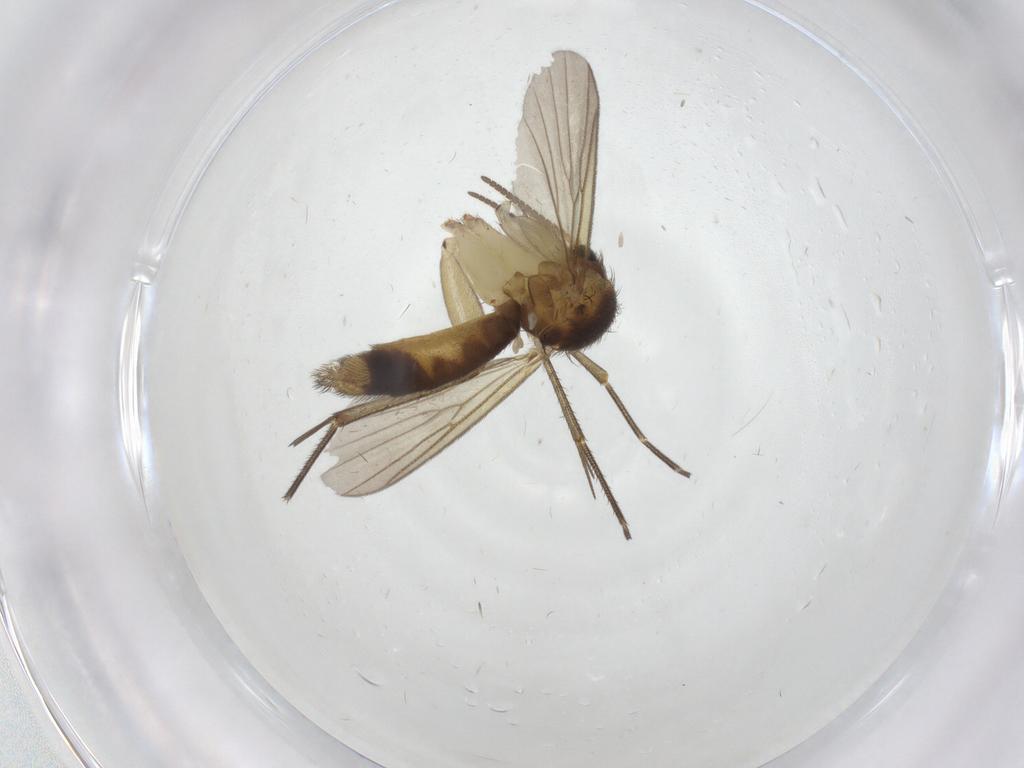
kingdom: Animalia
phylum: Arthropoda
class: Insecta
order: Diptera
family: Mycetophilidae
